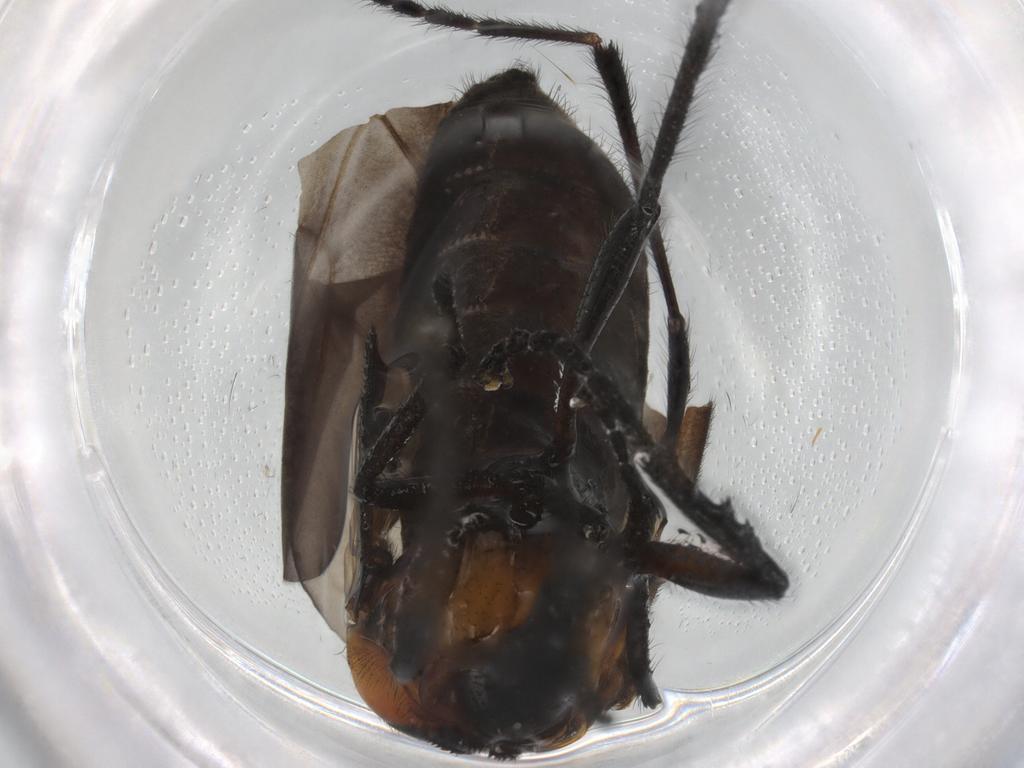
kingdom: Animalia
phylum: Arthropoda
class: Insecta
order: Diptera
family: Bibionidae
